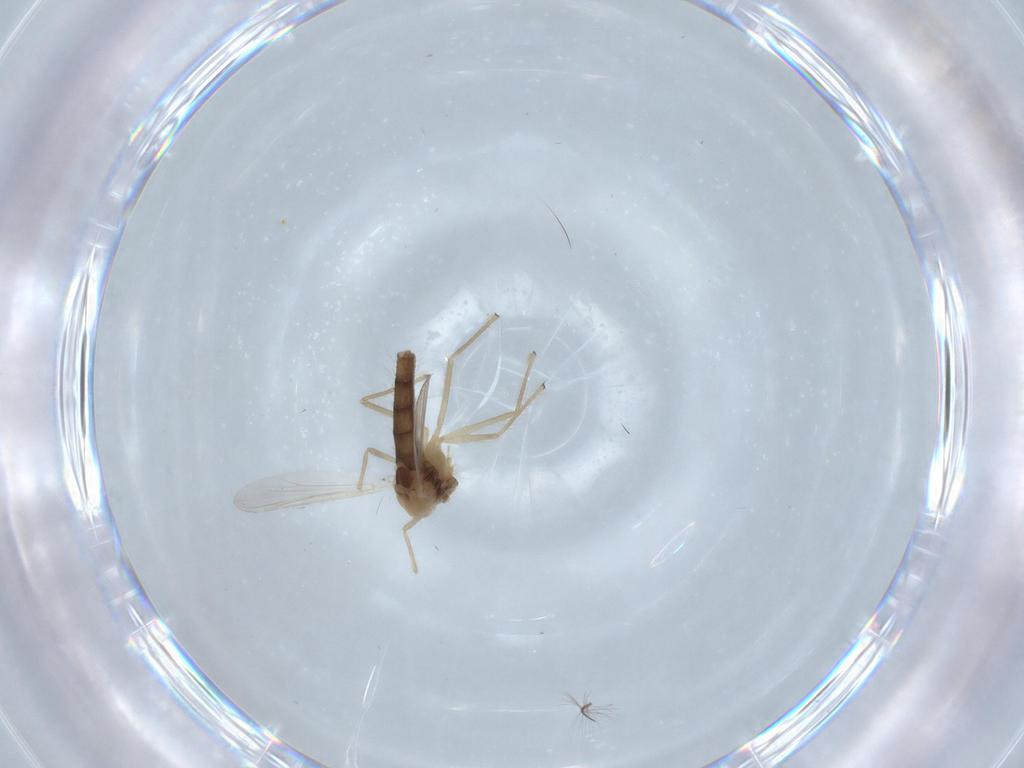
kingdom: Animalia
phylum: Arthropoda
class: Insecta
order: Diptera
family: Chironomidae
